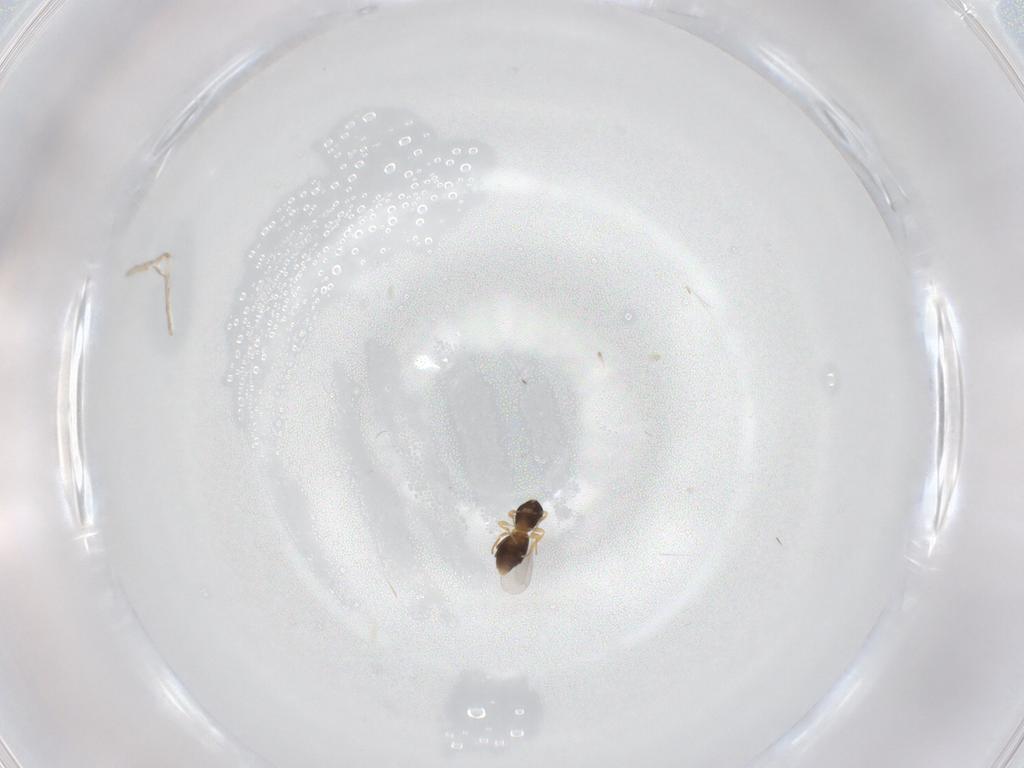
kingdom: Animalia
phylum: Arthropoda
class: Insecta
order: Hymenoptera
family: Platygastridae
